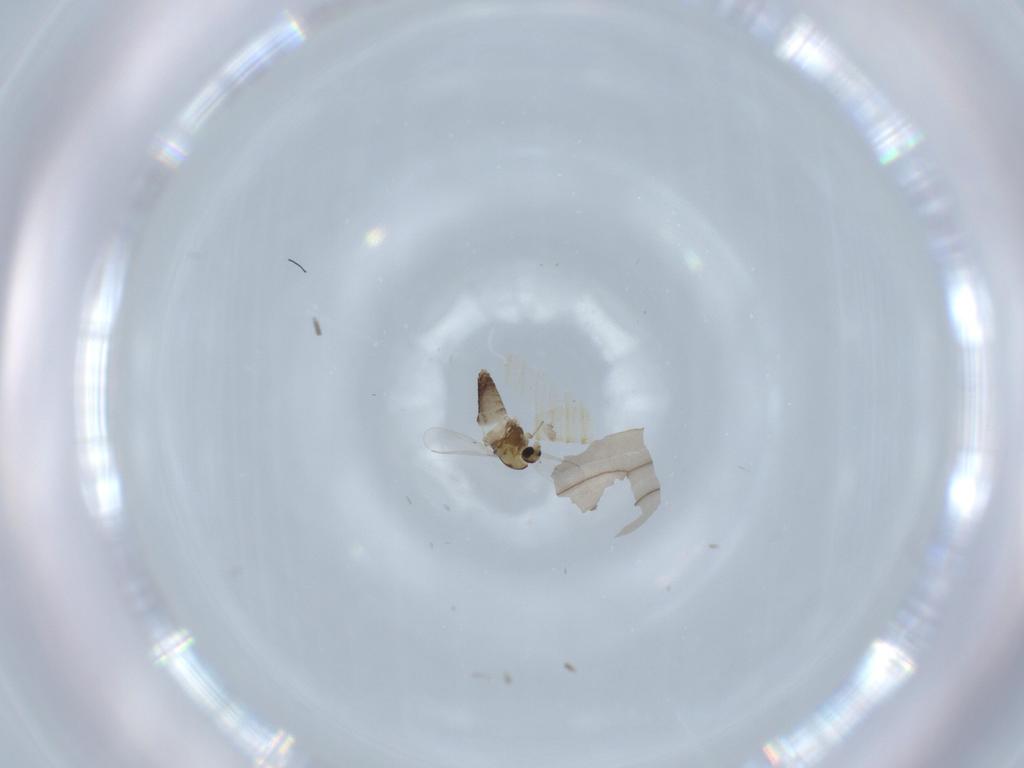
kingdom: Animalia
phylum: Arthropoda
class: Insecta
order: Diptera
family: Chironomidae
